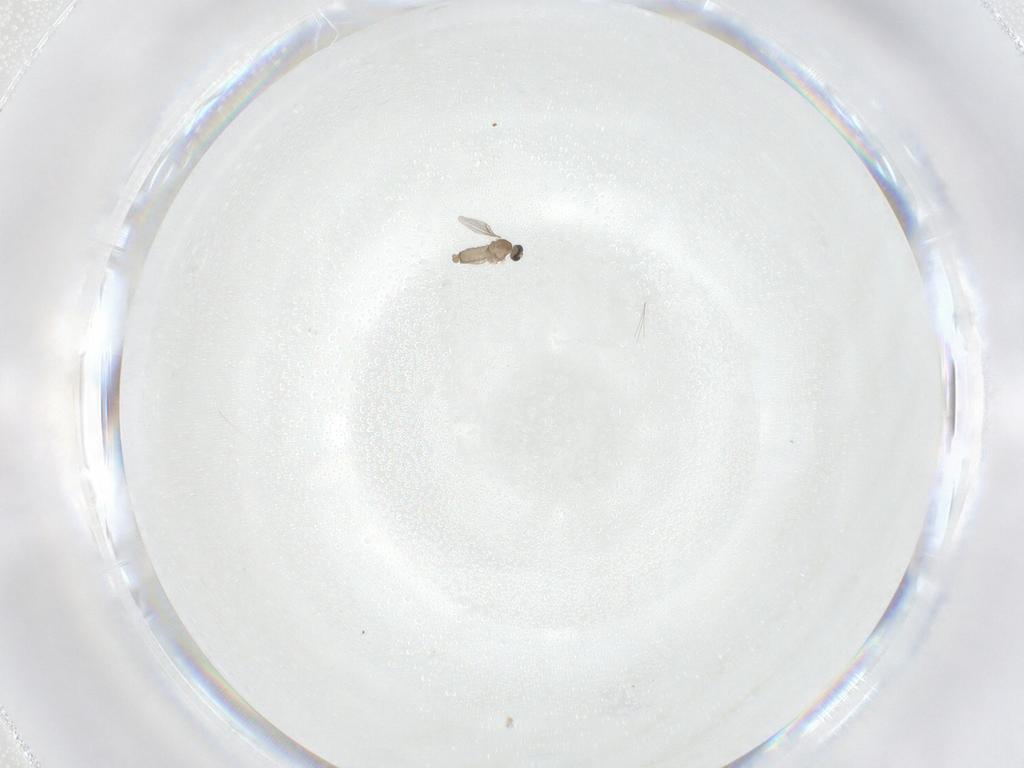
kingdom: Animalia
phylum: Arthropoda
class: Insecta
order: Diptera
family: Cecidomyiidae
